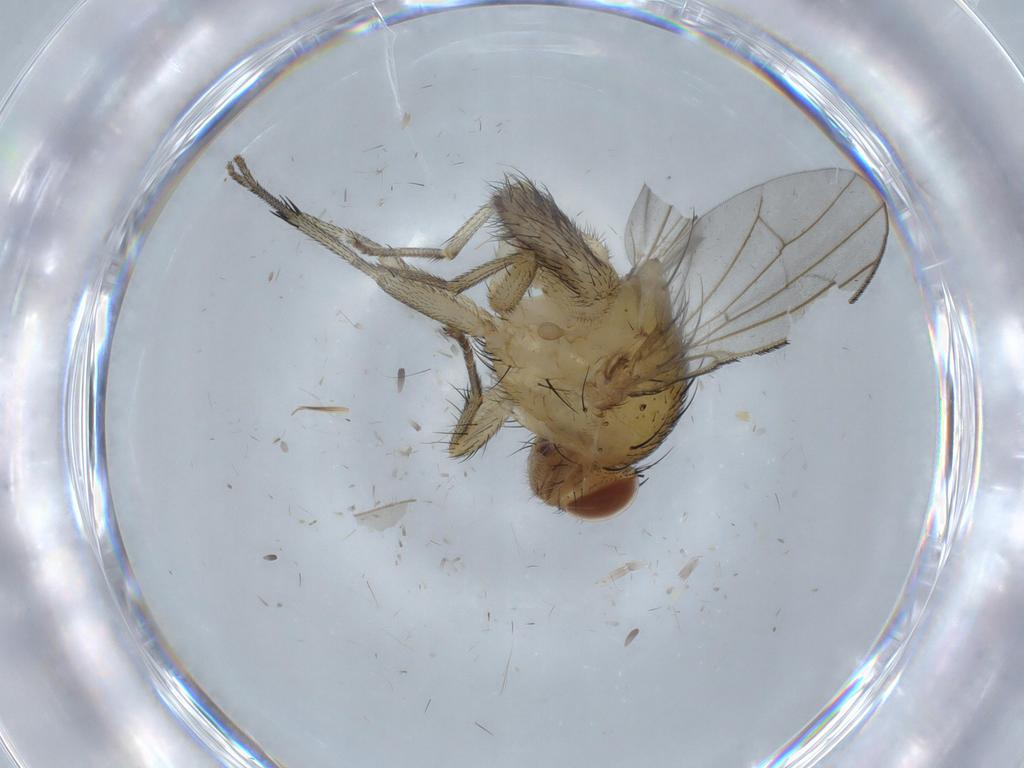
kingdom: Animalia
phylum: Arthropoda
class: Insecta
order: Diptera
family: Lauxaniidae
